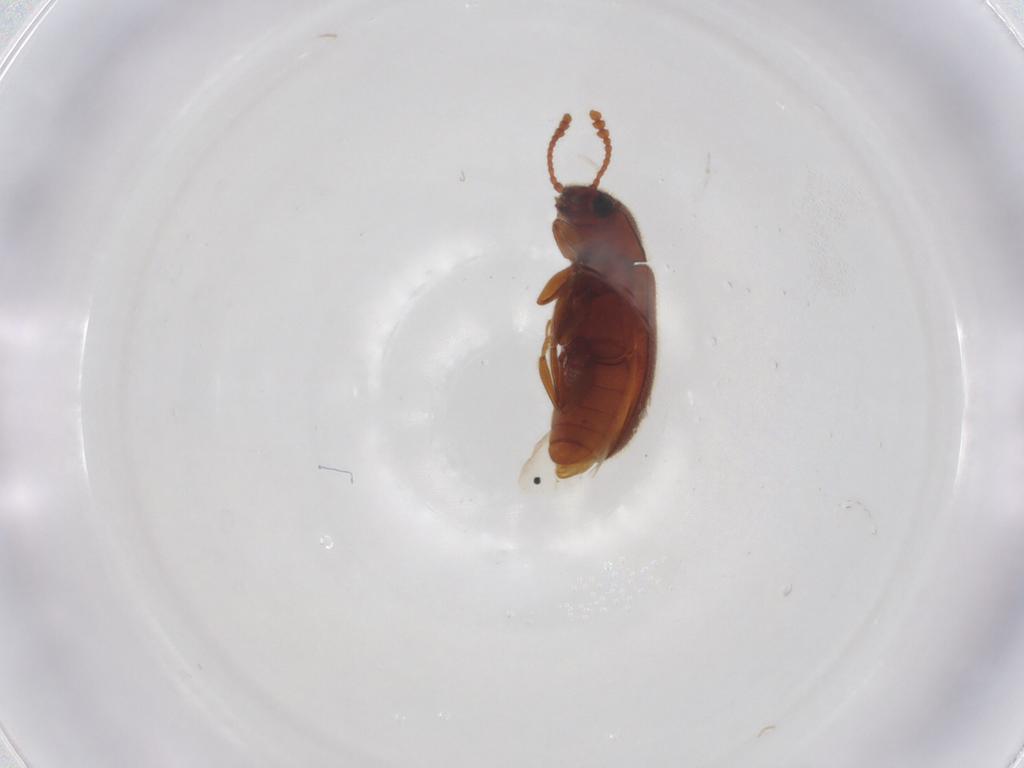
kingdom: Animalia
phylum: Arthropoda
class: Insecta
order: Coleoptera
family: Erotylidae
